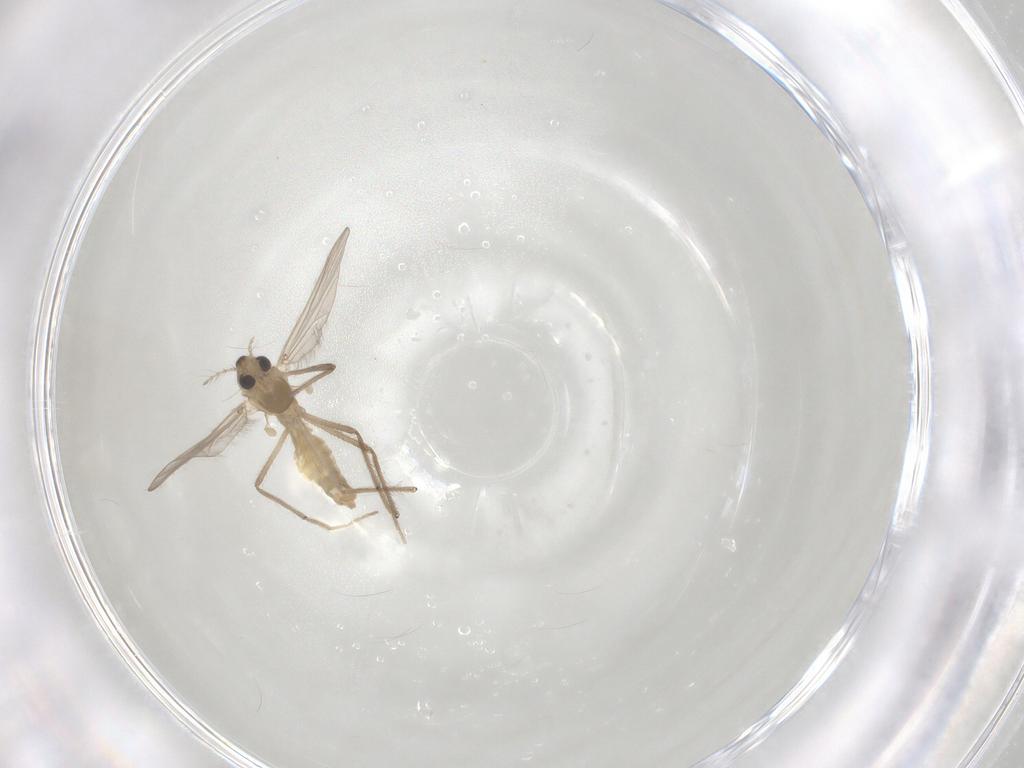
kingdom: Animalia
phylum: Arthropoda
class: Insecta
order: Diptera
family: Chironomidae
